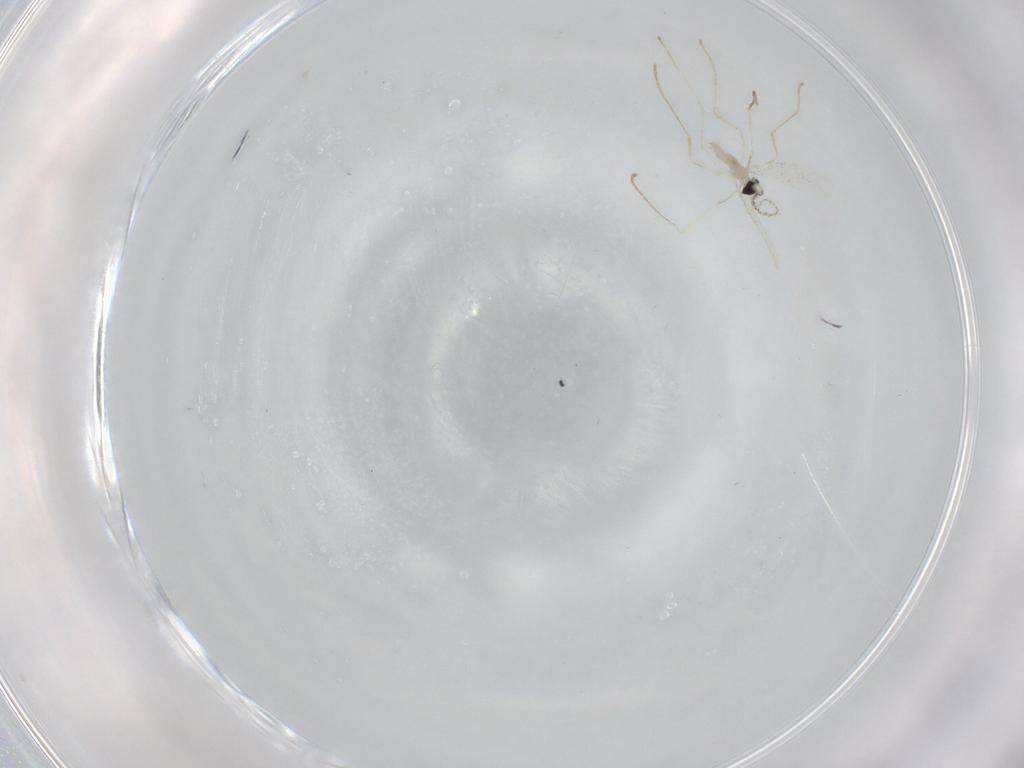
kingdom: Animalia
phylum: Arthropoda
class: Insecta
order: Diptera
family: Cecidomyiidae
